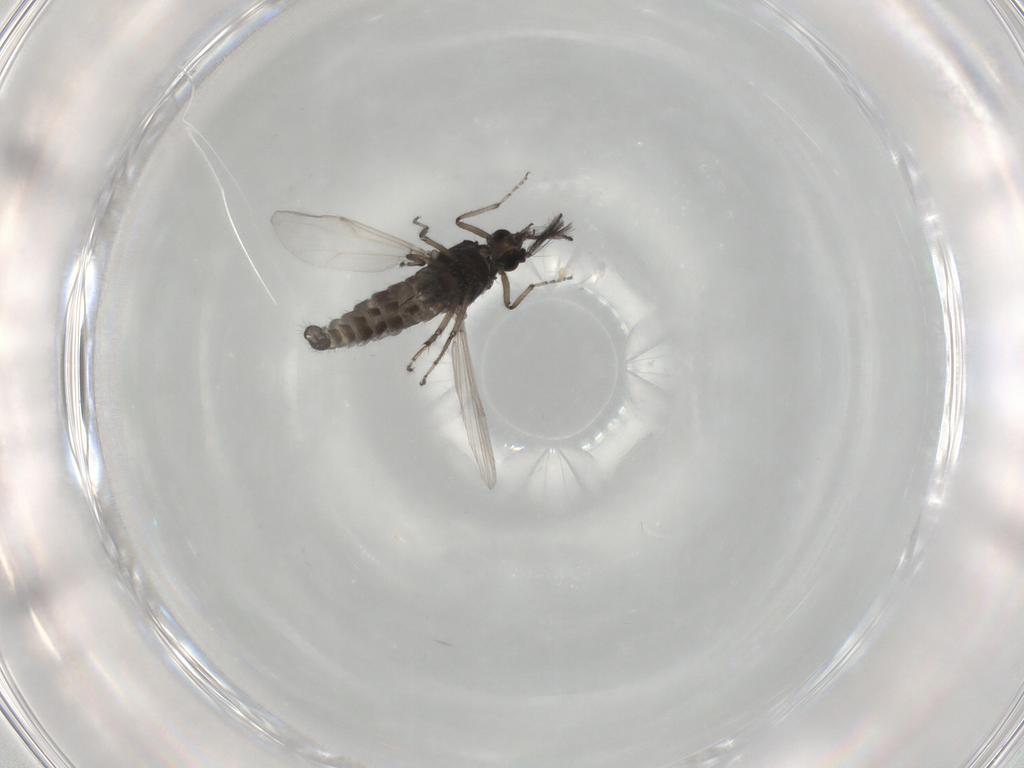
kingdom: Animalia
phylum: Arthropoda
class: Insecta
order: Diptera
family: Ceratopogonidae
